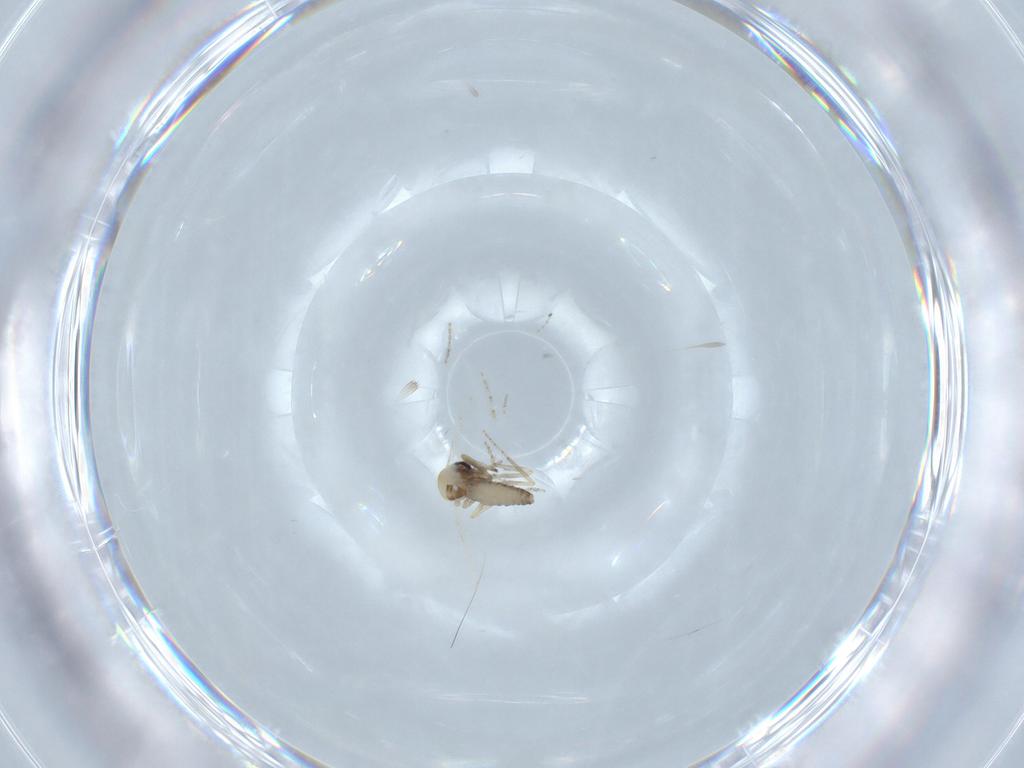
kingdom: Animalia
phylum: Arthropoda
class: Insecta
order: Diptera
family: Ceratopogonidae
